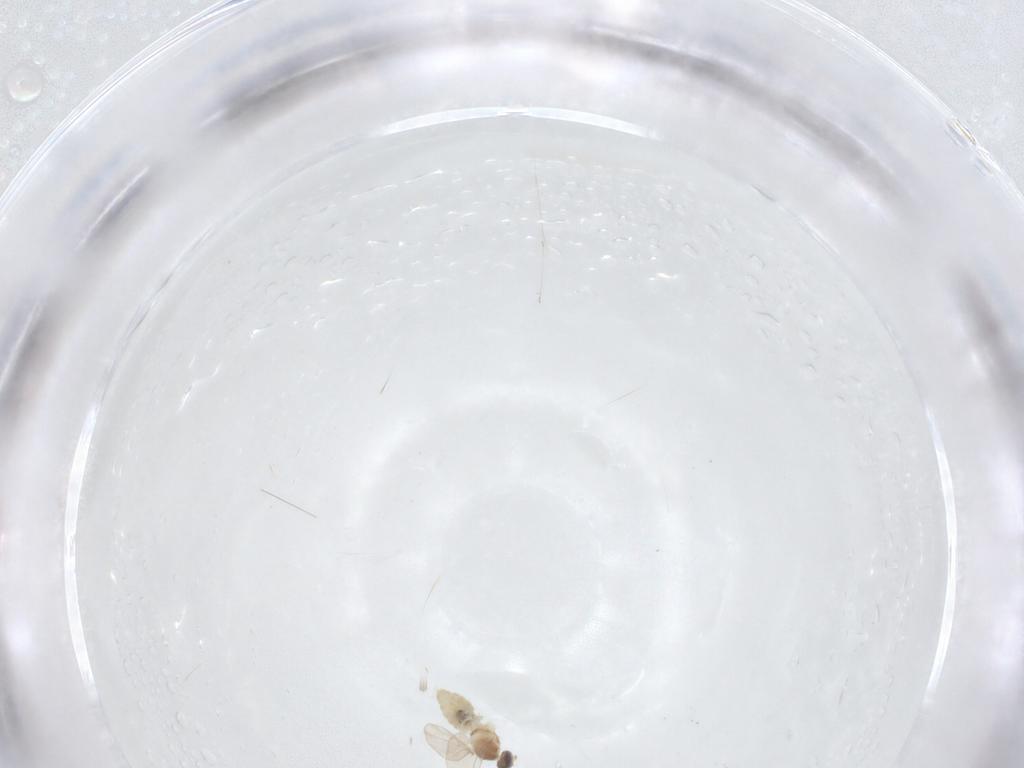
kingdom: Animalia
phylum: Arthropoda
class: Insecta
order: Diptera
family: Cecidomyiidae
